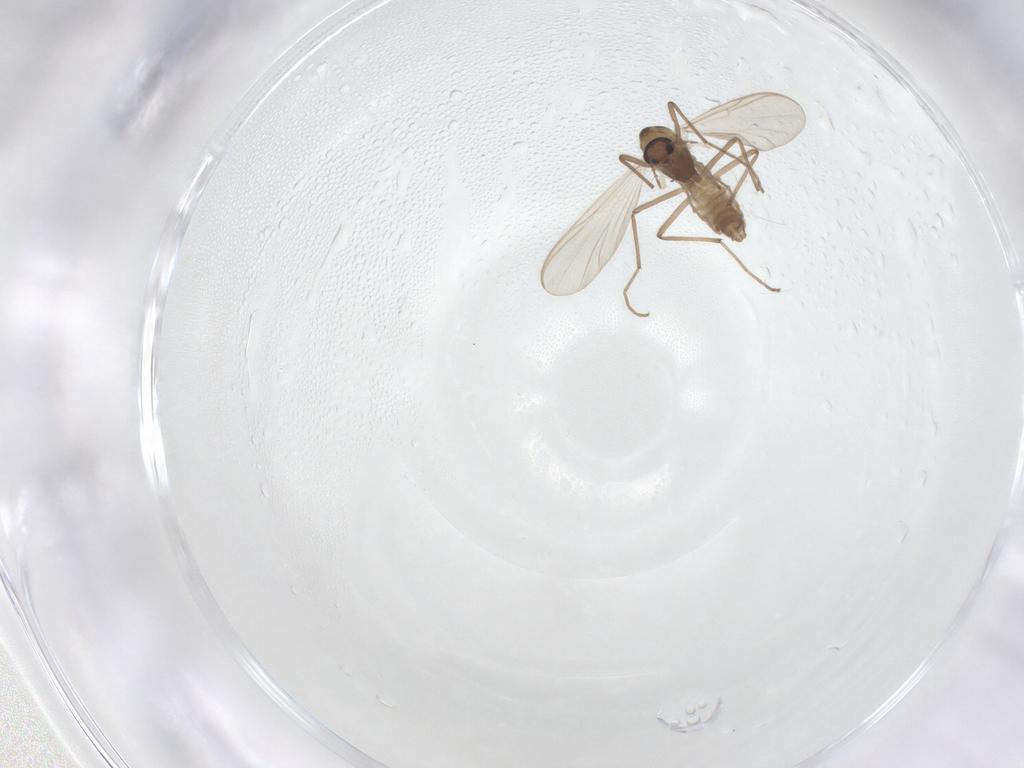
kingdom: Animalia
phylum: Arthropoda
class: Insecta
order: Diptera
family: Chironomidae
